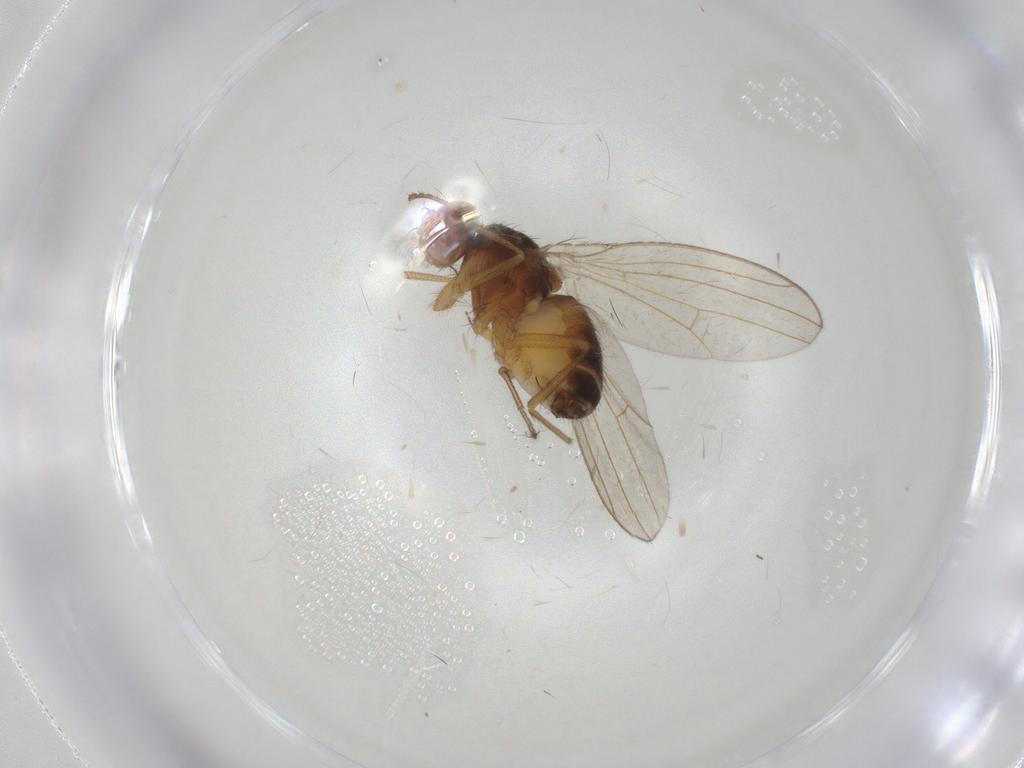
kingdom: Animalia
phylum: Arthropoda
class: Insecta
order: Diptera
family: Drosophilidae
